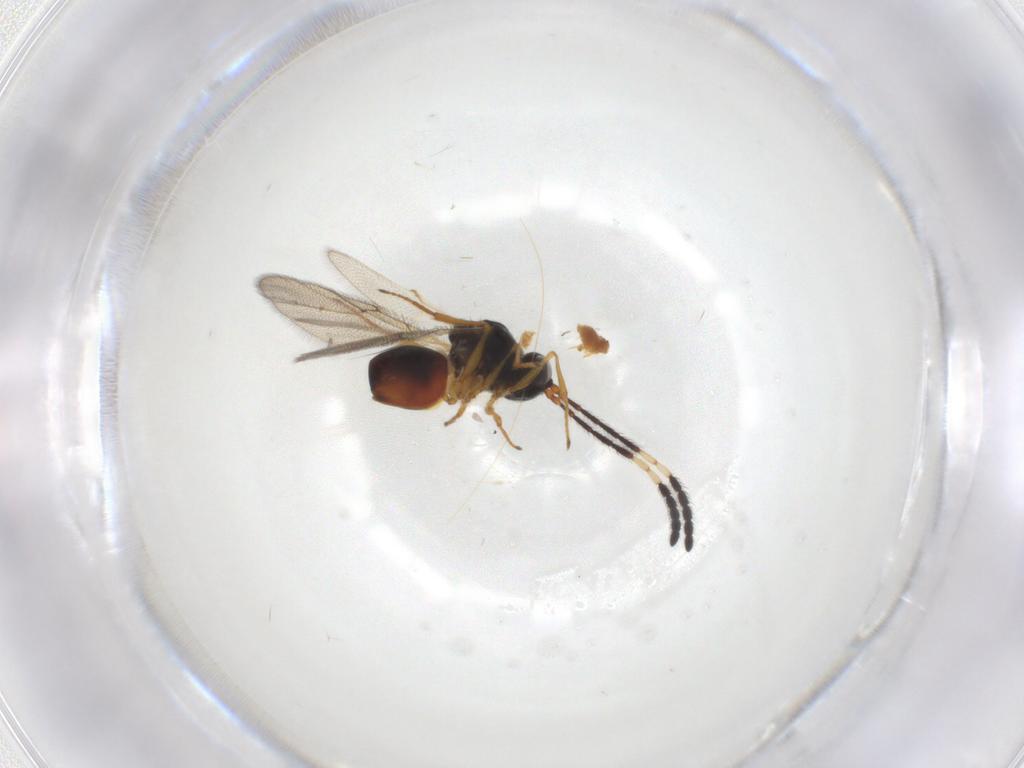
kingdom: Animalia
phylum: Arthropoda
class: Insecta
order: Hymenoptera
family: Figitidae
